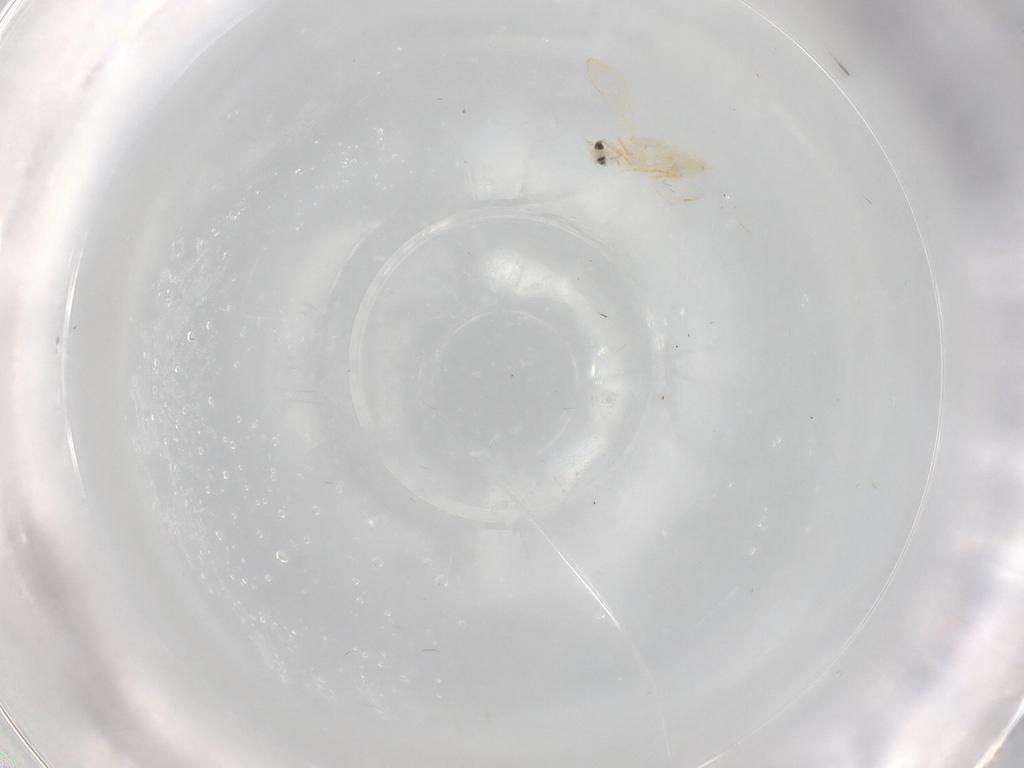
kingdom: Animalia
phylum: Arthropoda
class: Insecta
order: Hemiptera
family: Aleyrodidae
